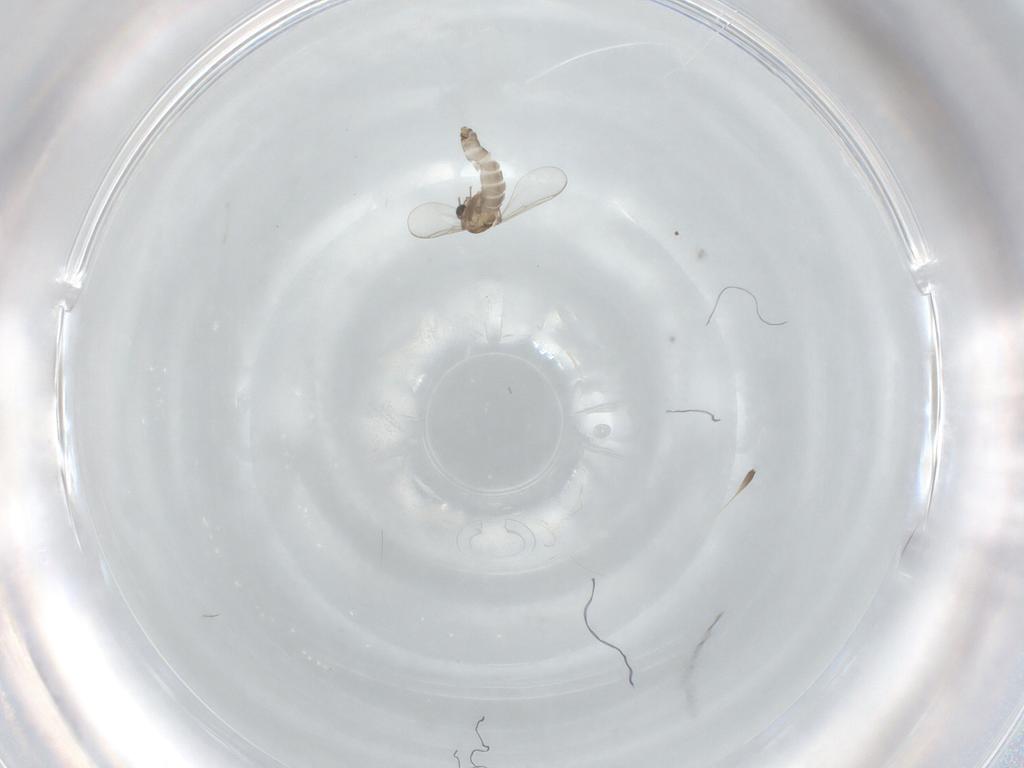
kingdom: Animalia
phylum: Arthropoda
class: Insecta
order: Diptera
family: Chironomidae
